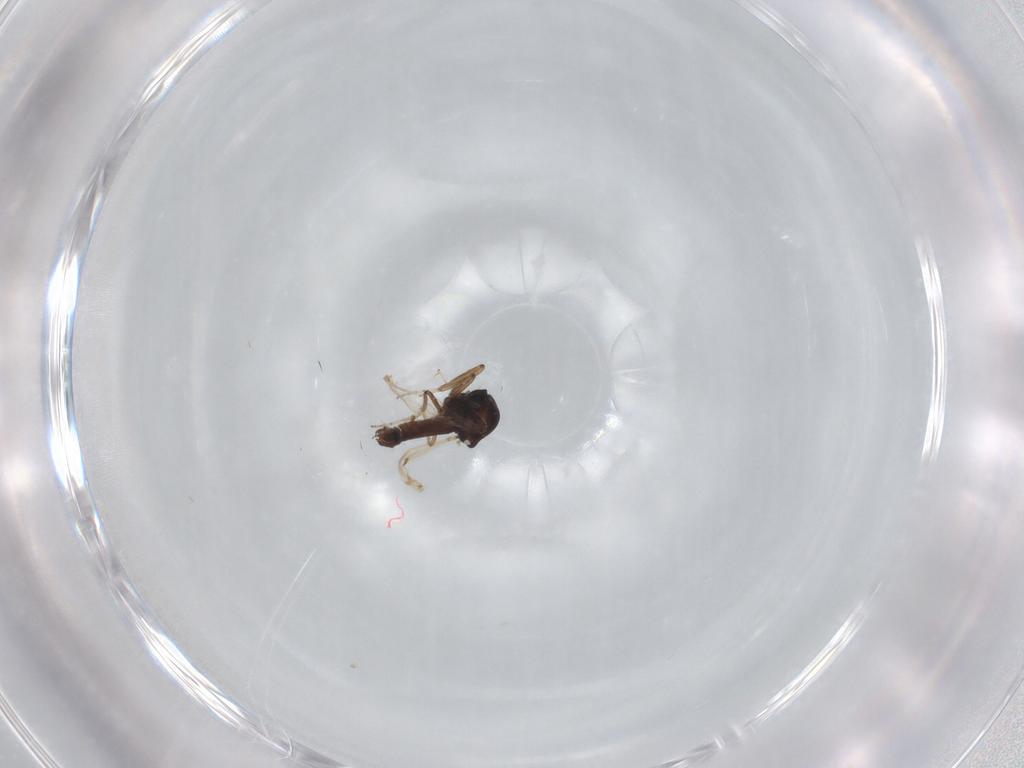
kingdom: Animalia
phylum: Arthropoda
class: Insecta
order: Diptera
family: Ceratopogonidae
